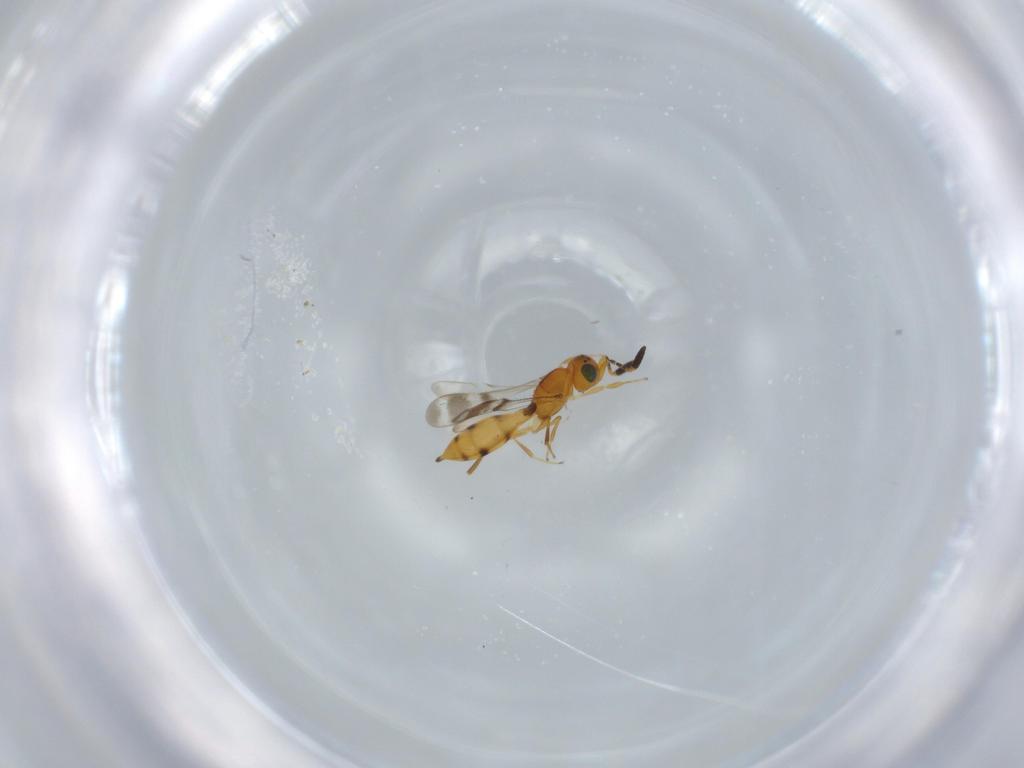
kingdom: Animalia
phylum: Arthropoda
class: Insecta
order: Hymenoptera
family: Scelionidae
